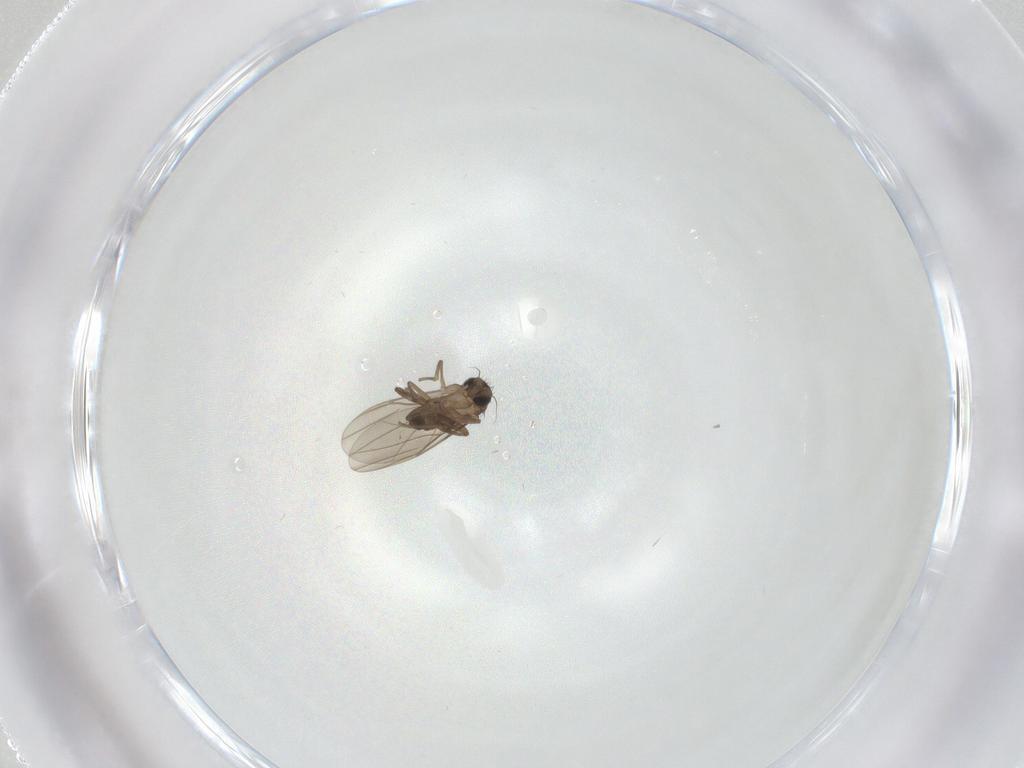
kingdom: Animalia
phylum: Arthropoda
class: Insecta
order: Diptera
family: Phoridae
